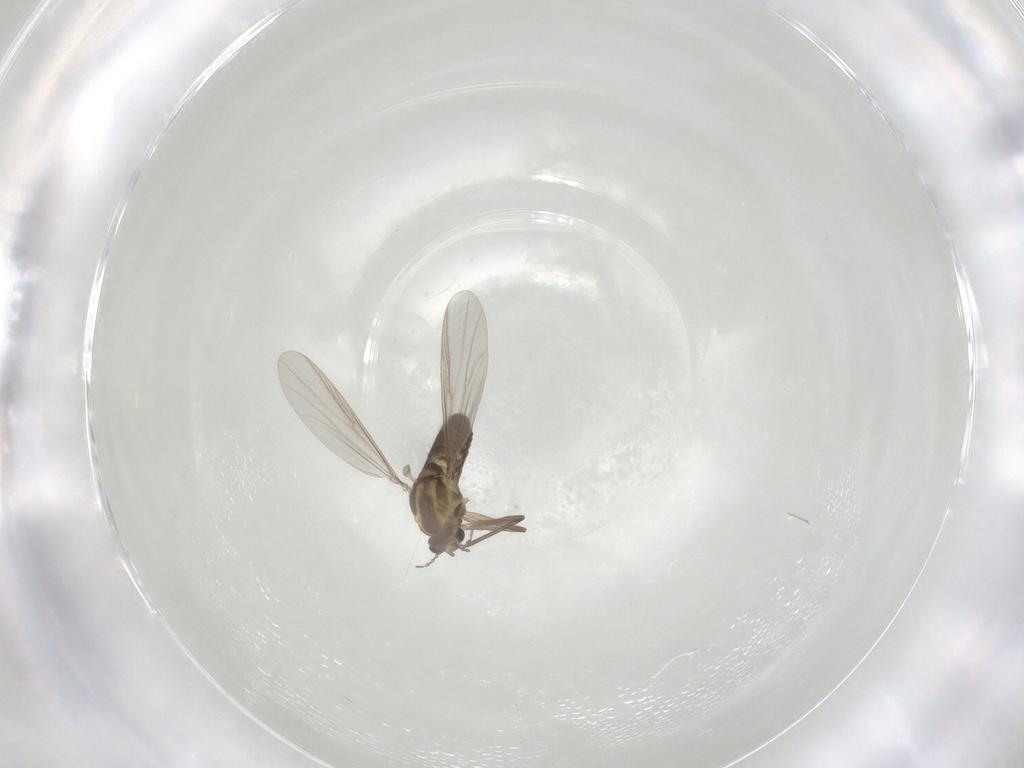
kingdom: Animalia
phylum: Arthropoda
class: Insecta
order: Diptera
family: Chironomidae
